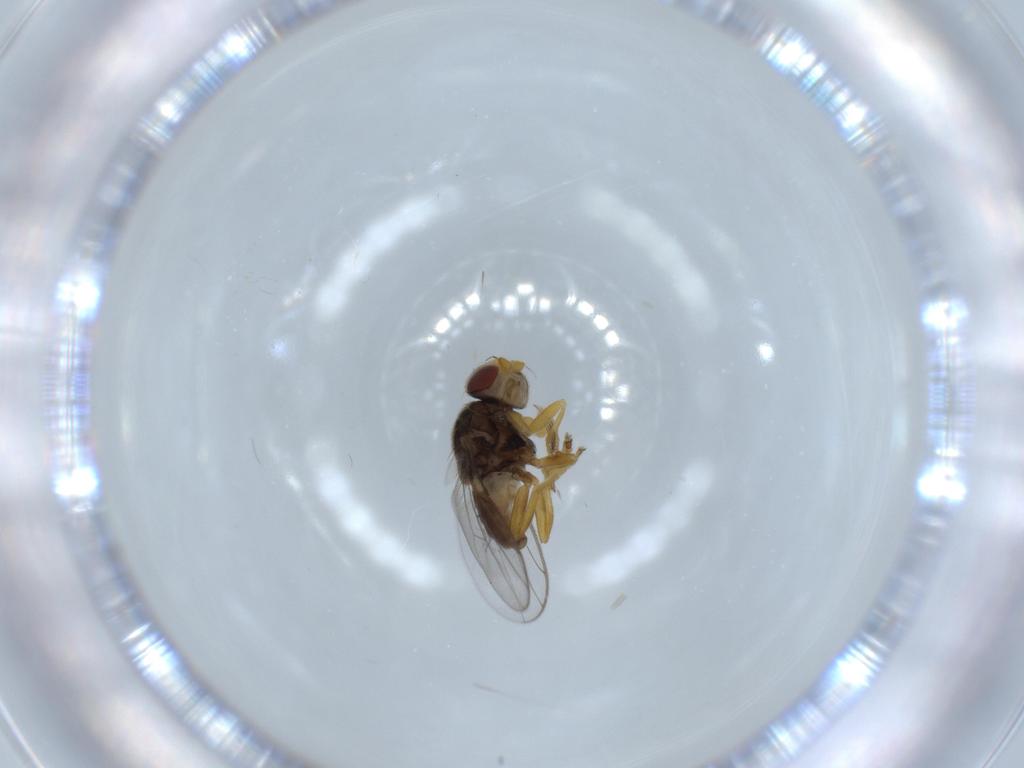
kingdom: Animalia
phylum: Arthropoda
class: Insecta
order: Diptera
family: Chloropidae
